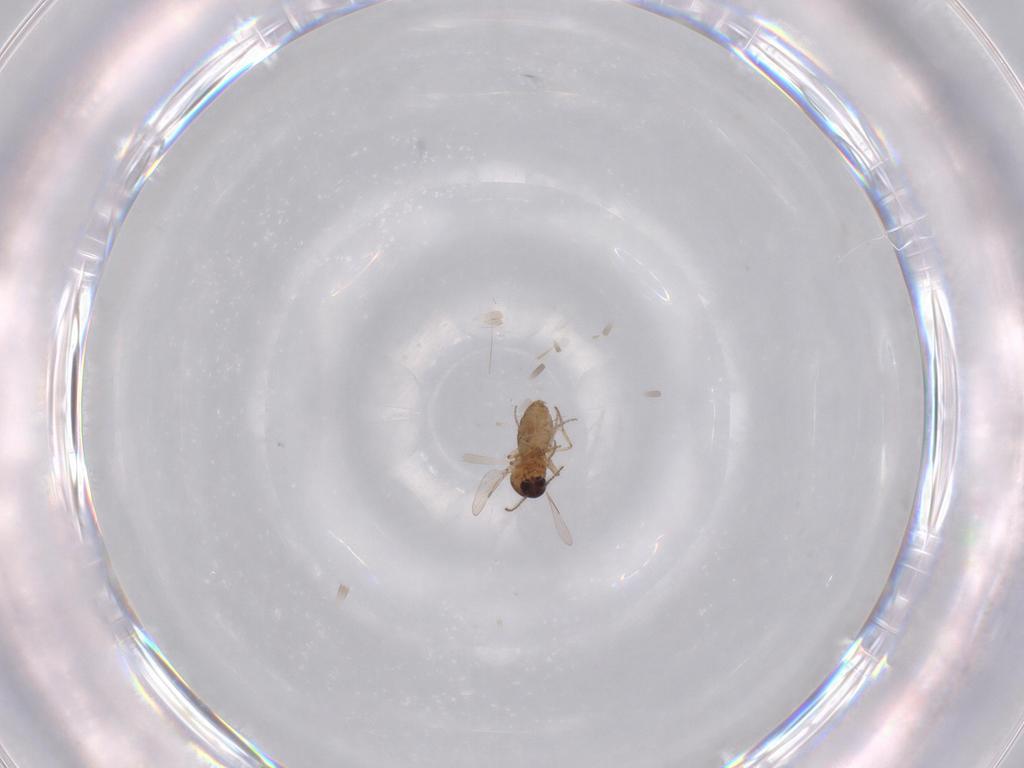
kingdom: Animalia
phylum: Arthropoda
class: Insecta
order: Diptera
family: Ceratopogonidae
